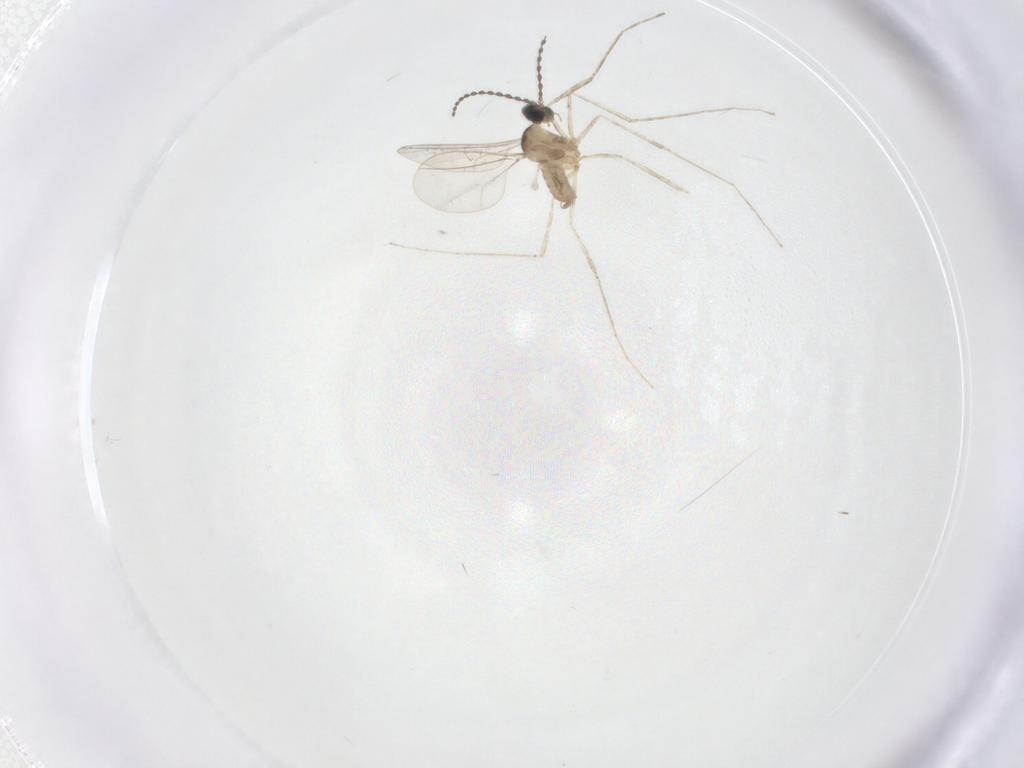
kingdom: Animalia
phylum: Arthropoda
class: Insecta
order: Diptera
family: Cecidomyiidae
